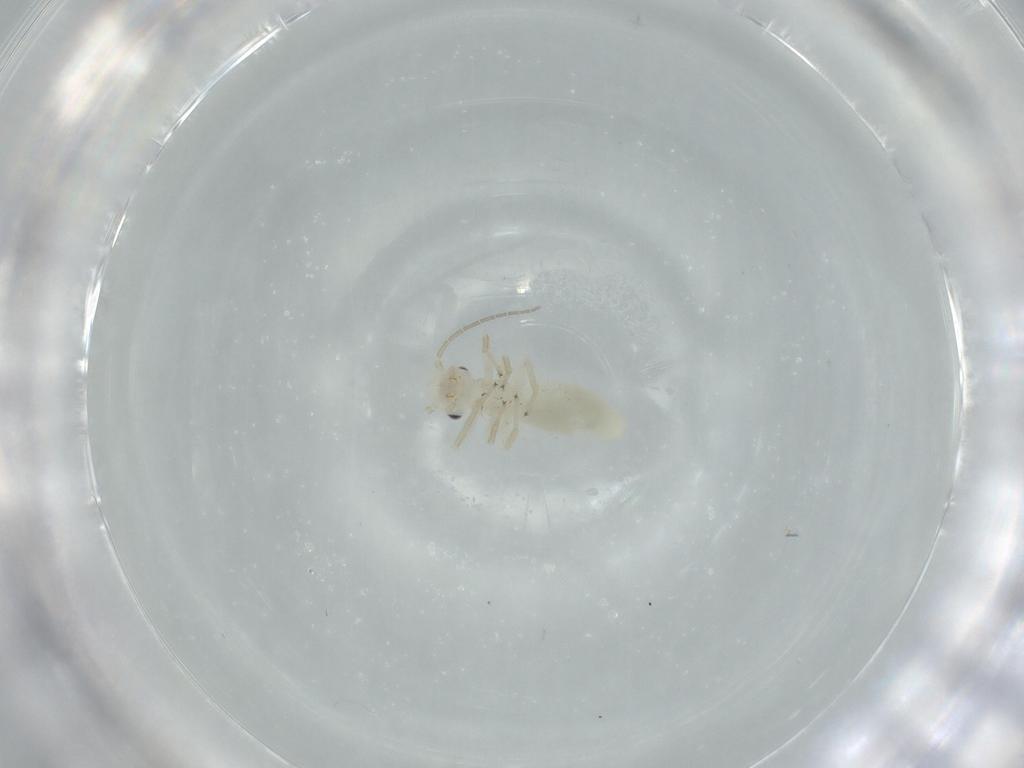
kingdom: Animalia
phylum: Arthropoda
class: Insecta
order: Psocodea
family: Caeciliusidae
